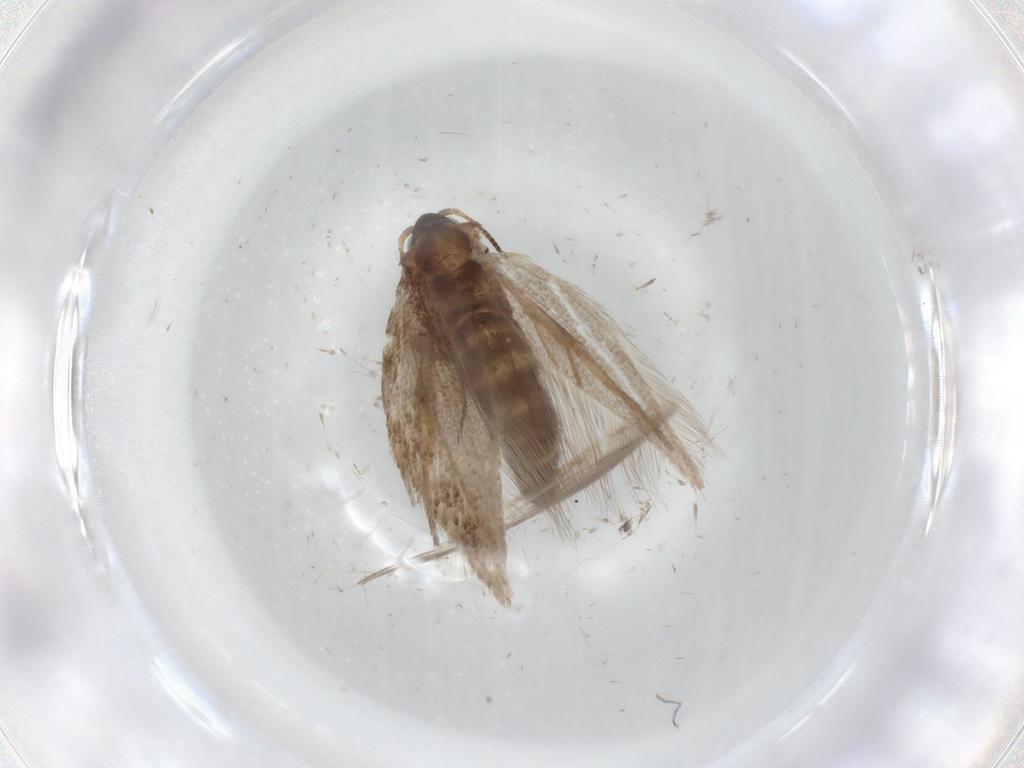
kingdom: Animalia
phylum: Arthropoda
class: Insecta
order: Lepidoptera
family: Nepticulidae
